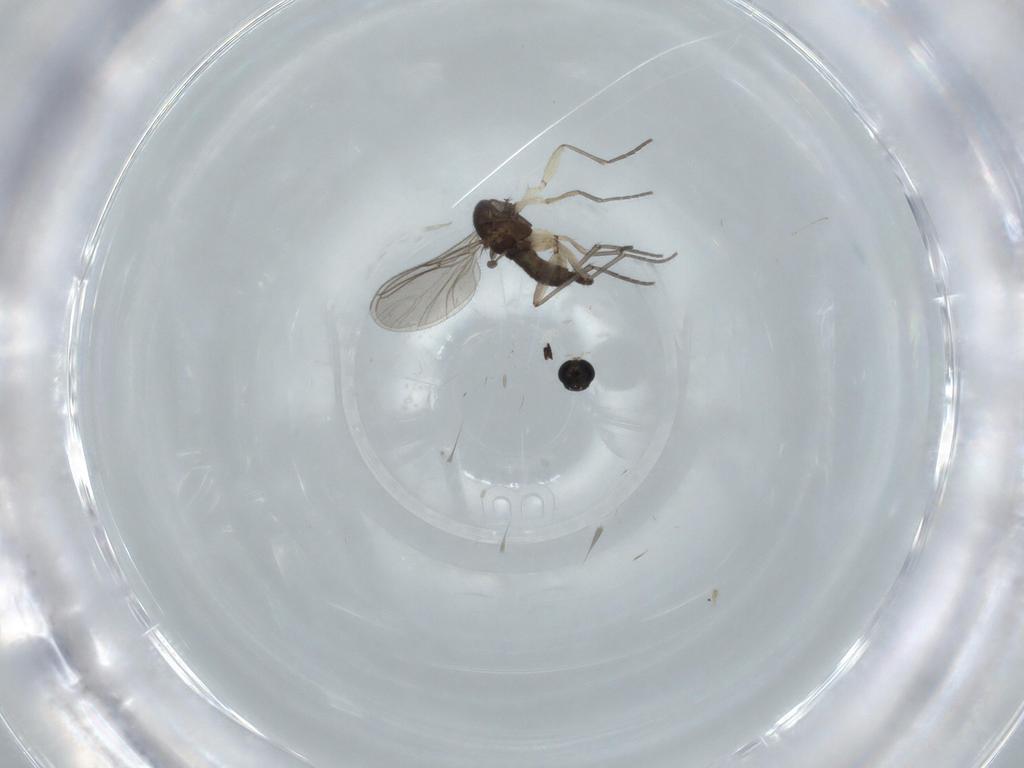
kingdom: Animalia
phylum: Arthropoda
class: Insecta
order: Diptera
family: Sciaridae
